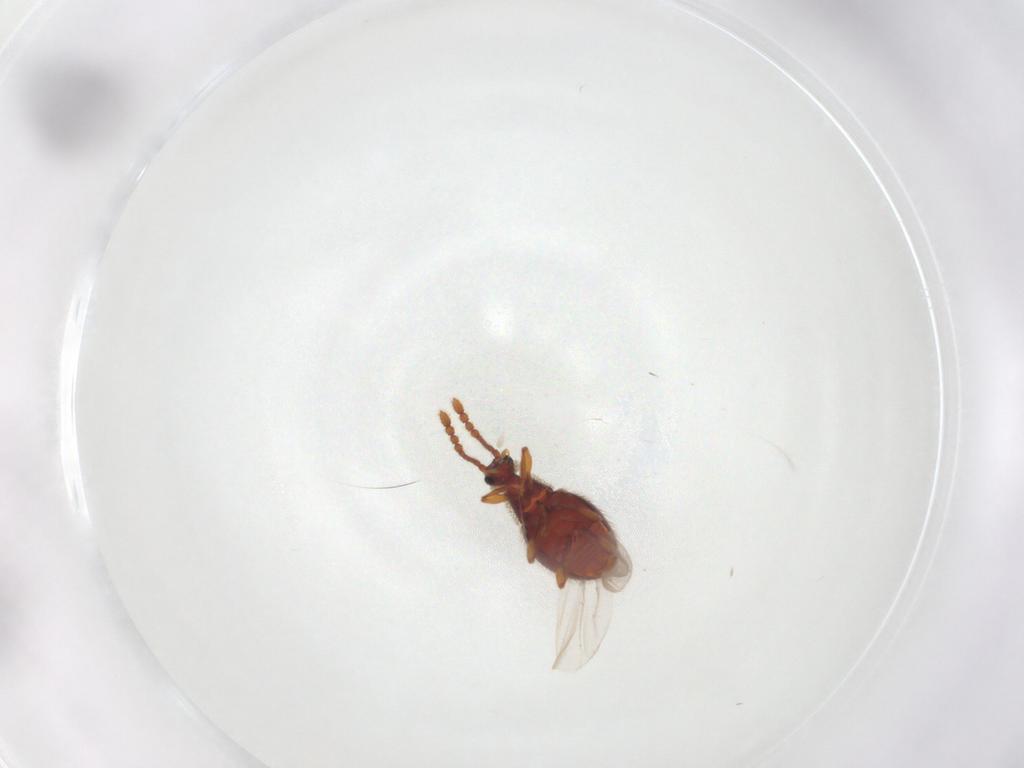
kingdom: Animalia
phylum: Arthropoda
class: Insecta
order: Coleoptera
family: Staphylinidae
